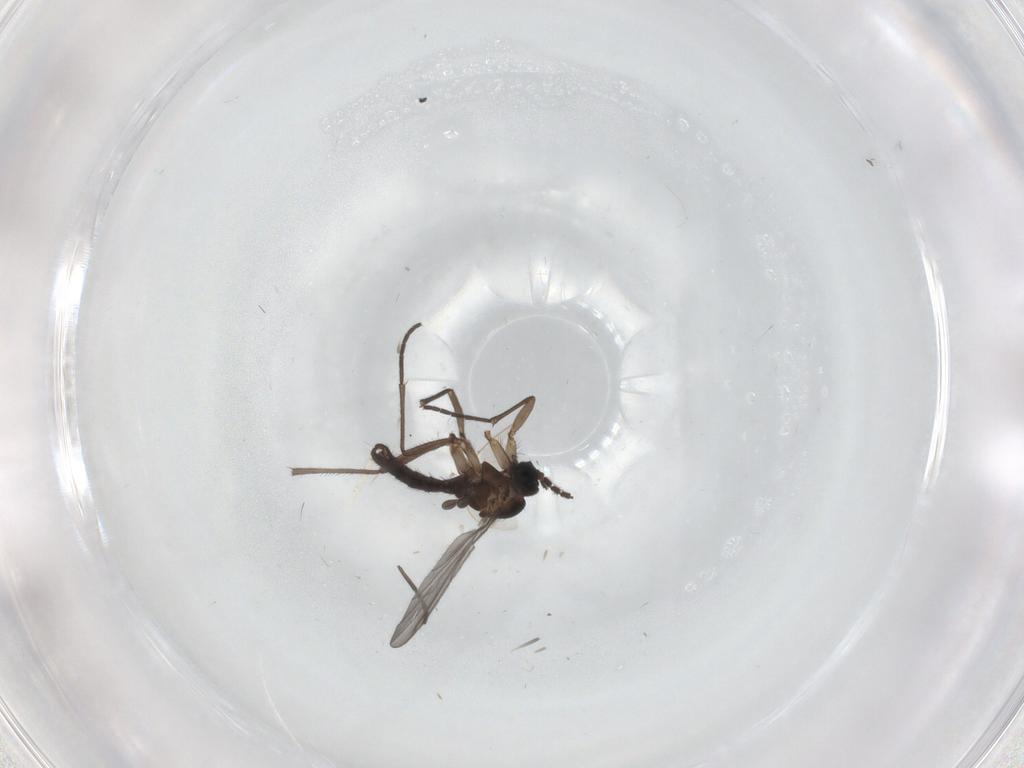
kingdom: Animalia
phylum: Arthropoda
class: Insecta
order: Diptera
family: Sciaridae
